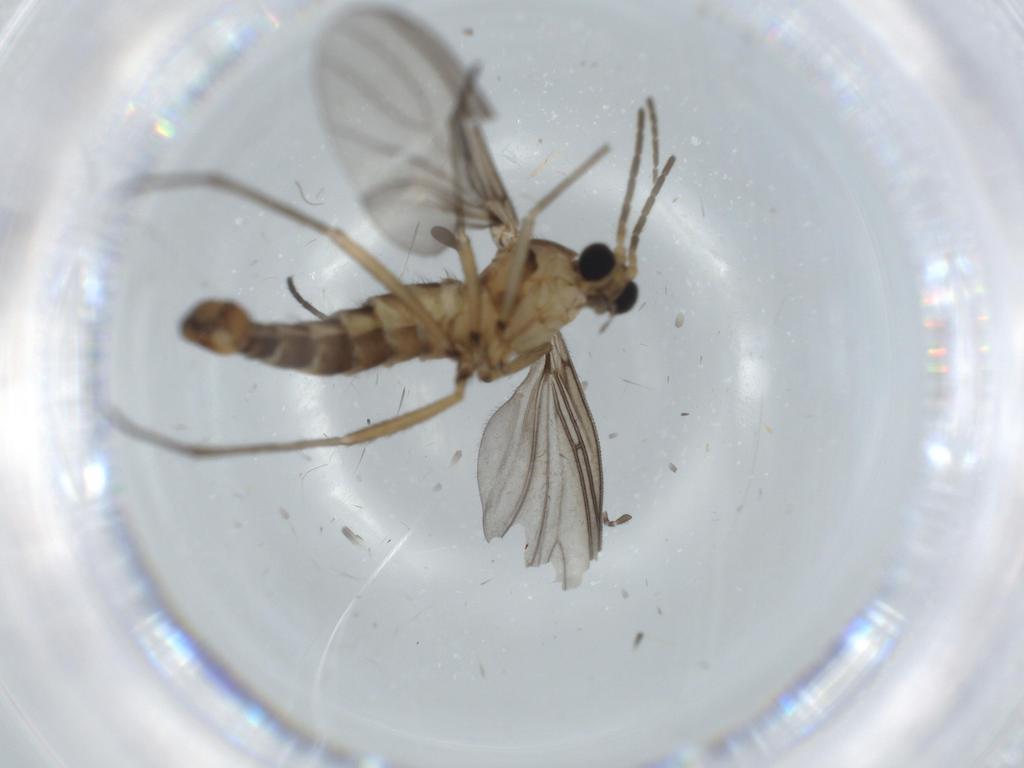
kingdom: Animalia
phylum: Arthropoda
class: Insecta
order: Diptera
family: Sciaridae
